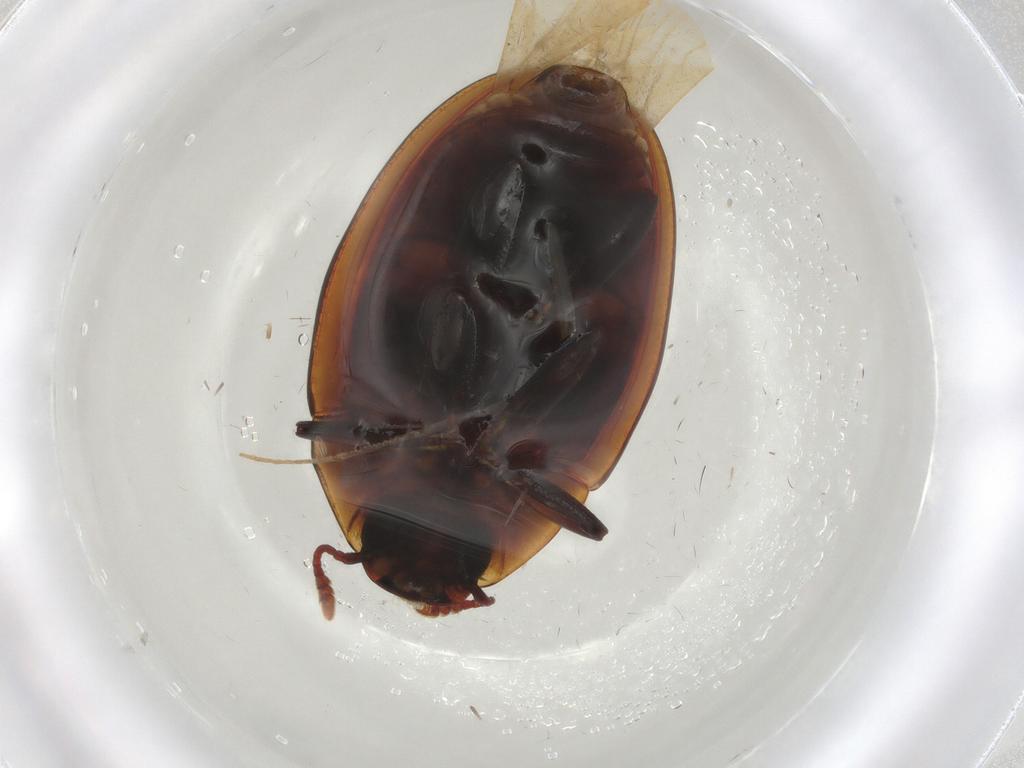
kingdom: Animalia
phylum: Arthropoda
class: Insecta
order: Coleoptera
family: Zopheridae
